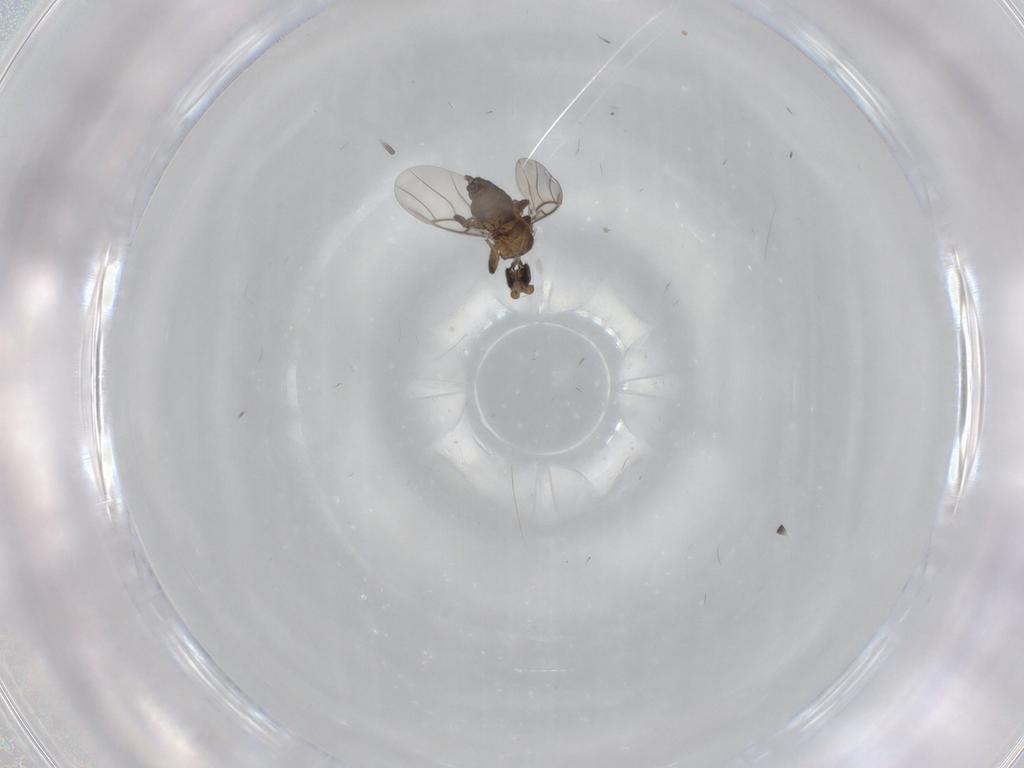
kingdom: Animalia
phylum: Arthropoda
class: Insecta
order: Diptera
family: Phoridae
